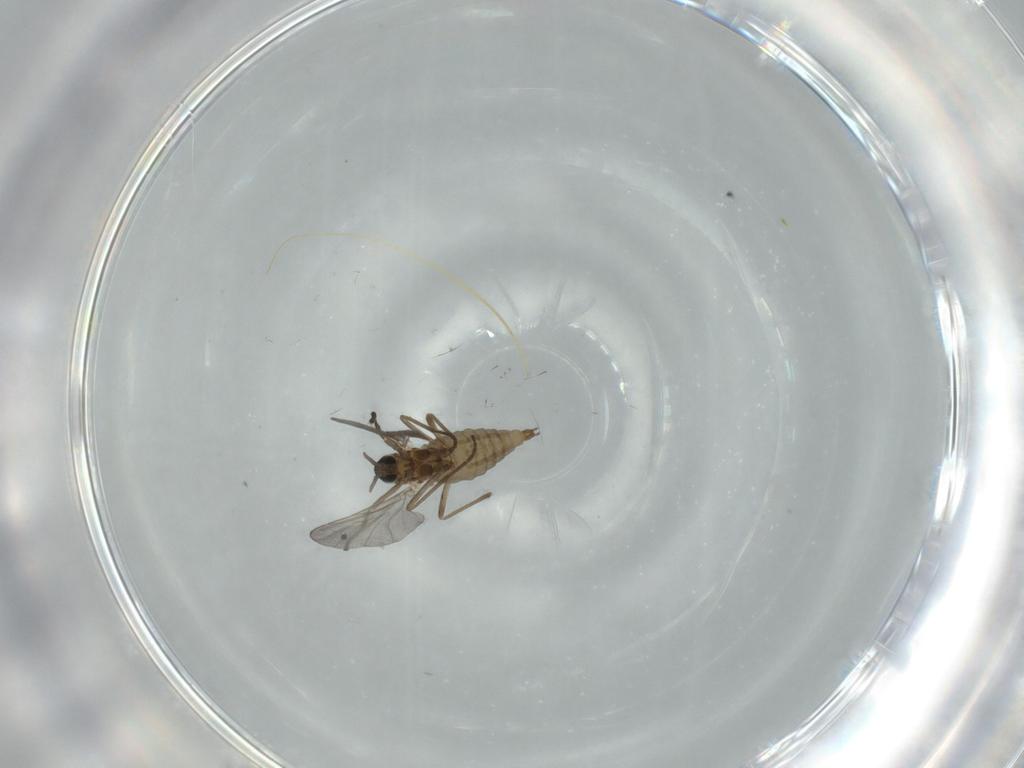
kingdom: Animalia
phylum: Arthropoda
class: Insecta
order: Diptera
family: Cecidomyiidae
